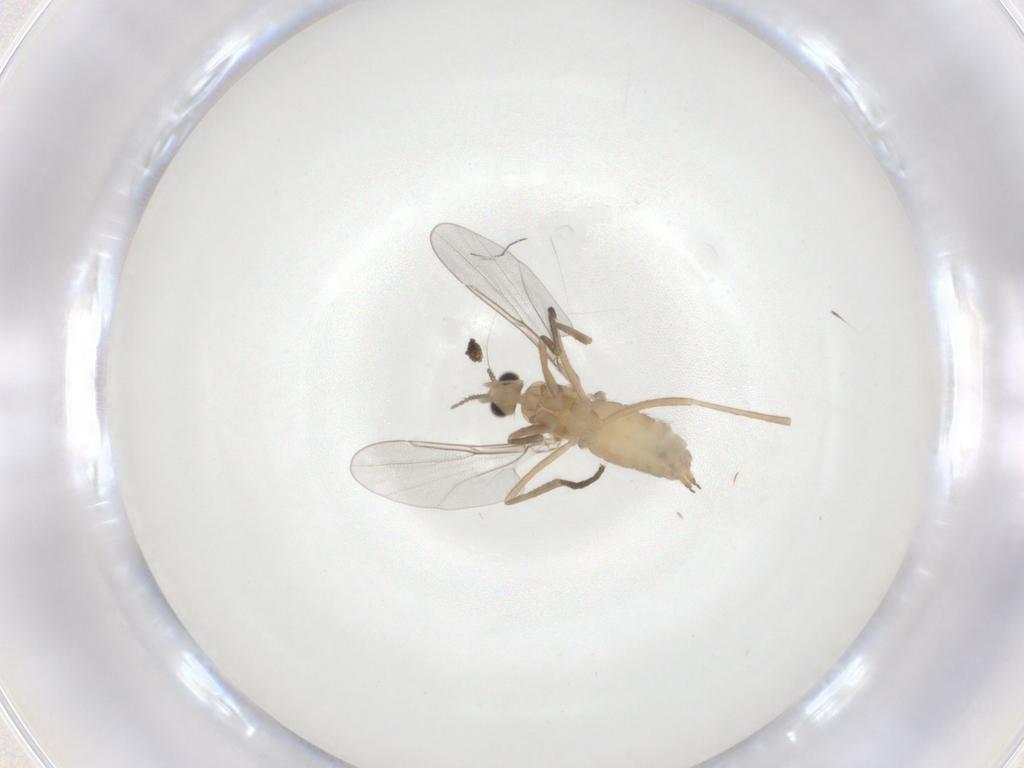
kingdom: Animalia
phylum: Arthropoda
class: Insecta
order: Diptera
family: Cecidomyiidae
